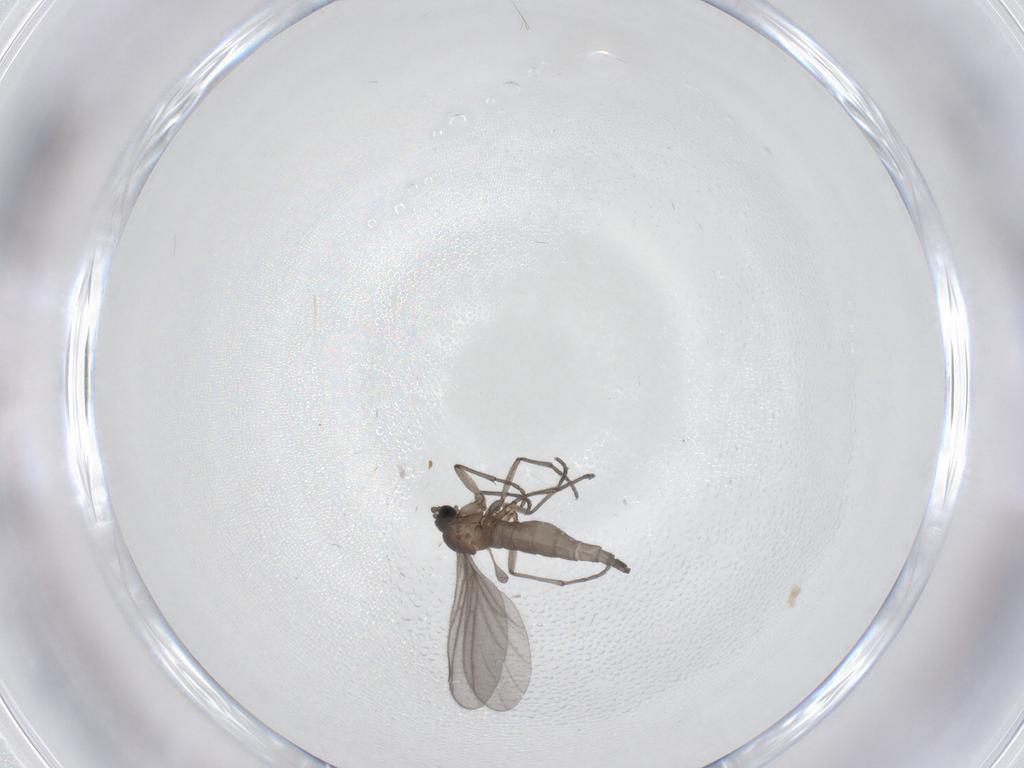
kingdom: Animalia
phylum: Arthropoda
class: Insecta
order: Diptera
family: Sciaridae
